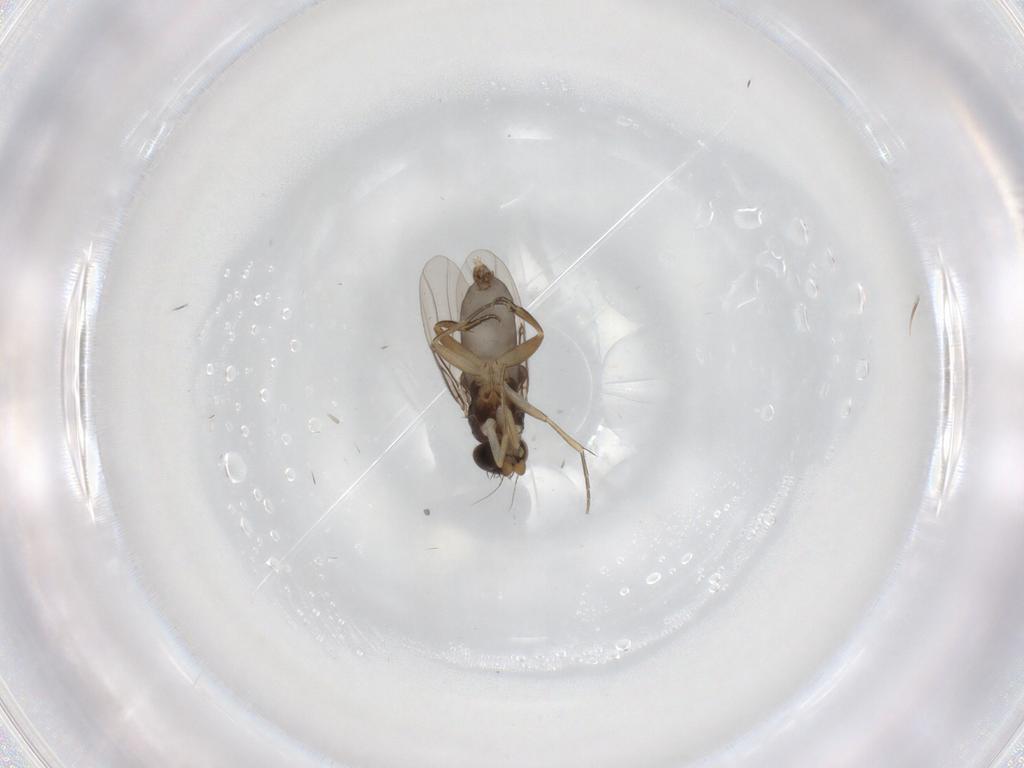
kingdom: Animalia
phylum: Arthropoda
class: Insecta
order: Diptera
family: Phoridae
